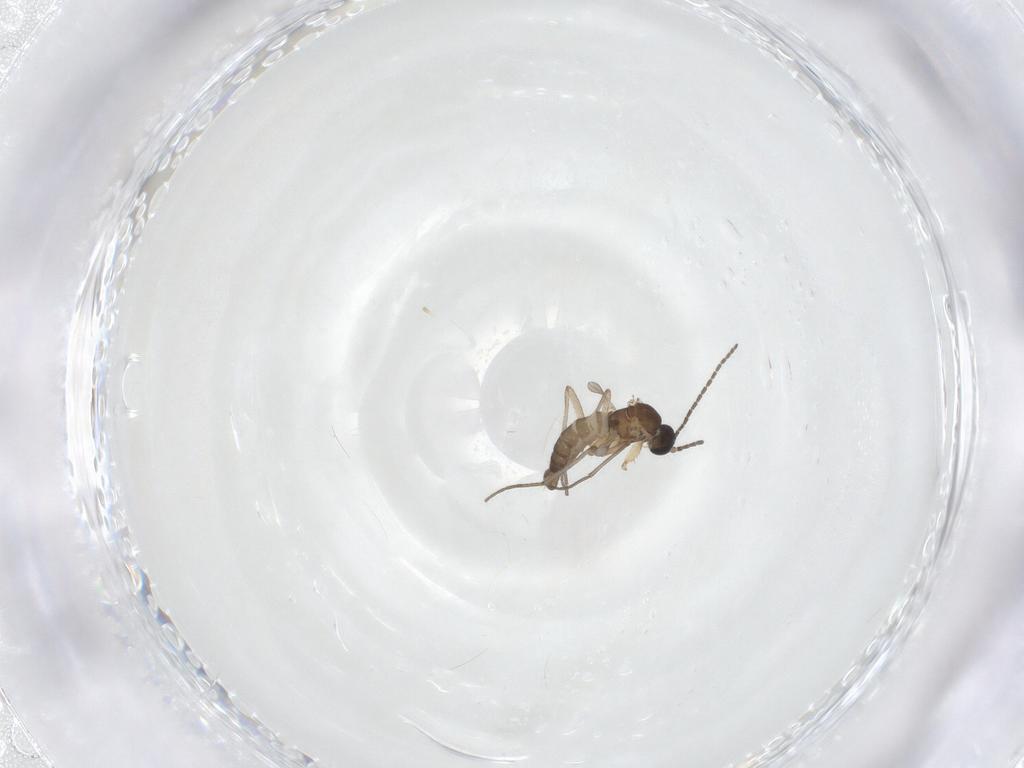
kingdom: Animalia
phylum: Arthropoda
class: Insecta
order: Diptera
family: Sciaridae
